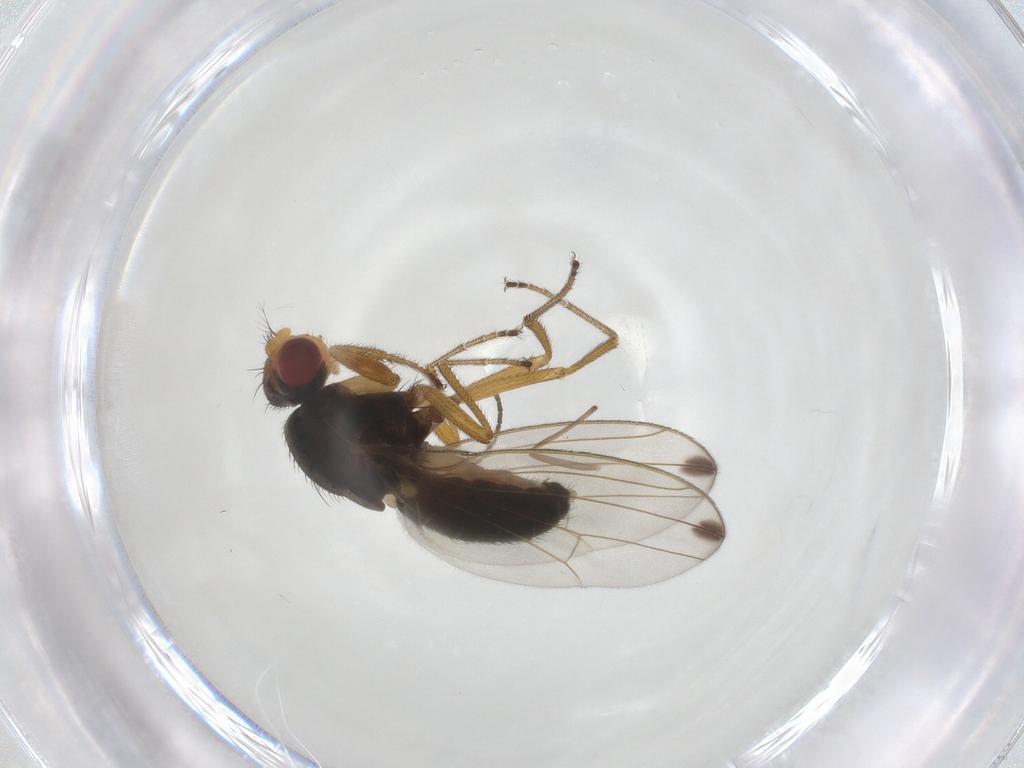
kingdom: Animalia
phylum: Arthropoda
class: Insecta
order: Diptera
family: Drosophilidae
